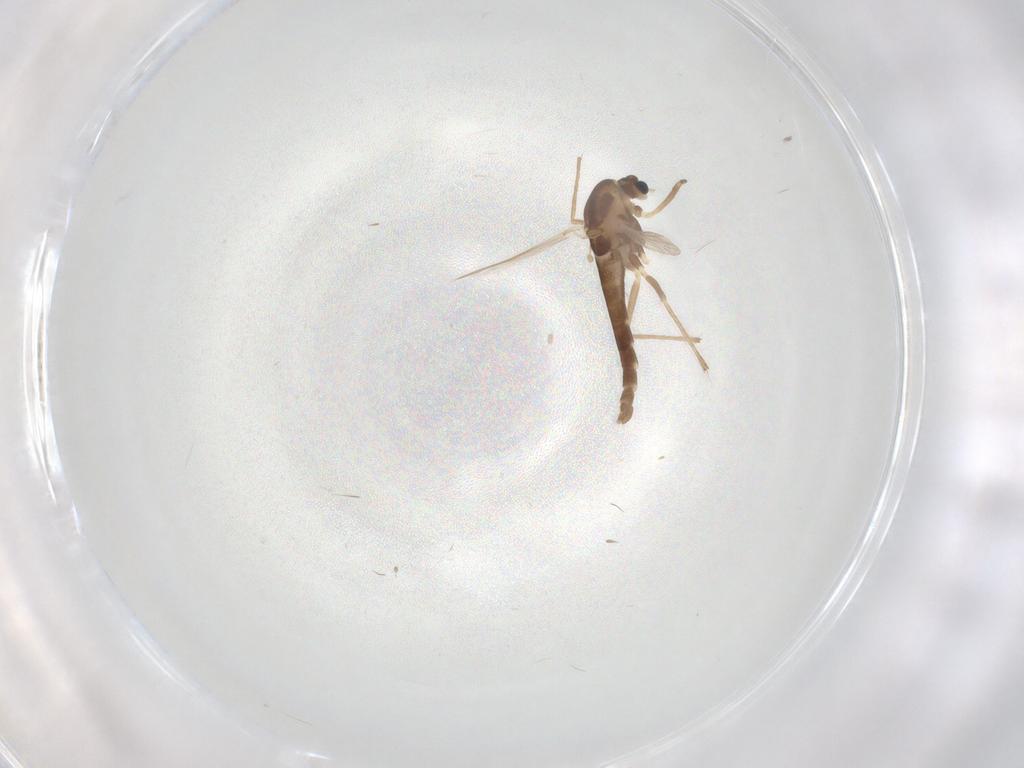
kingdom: Animalia
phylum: Arthropoda
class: Insecta
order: Diptera
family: Chironomidae
